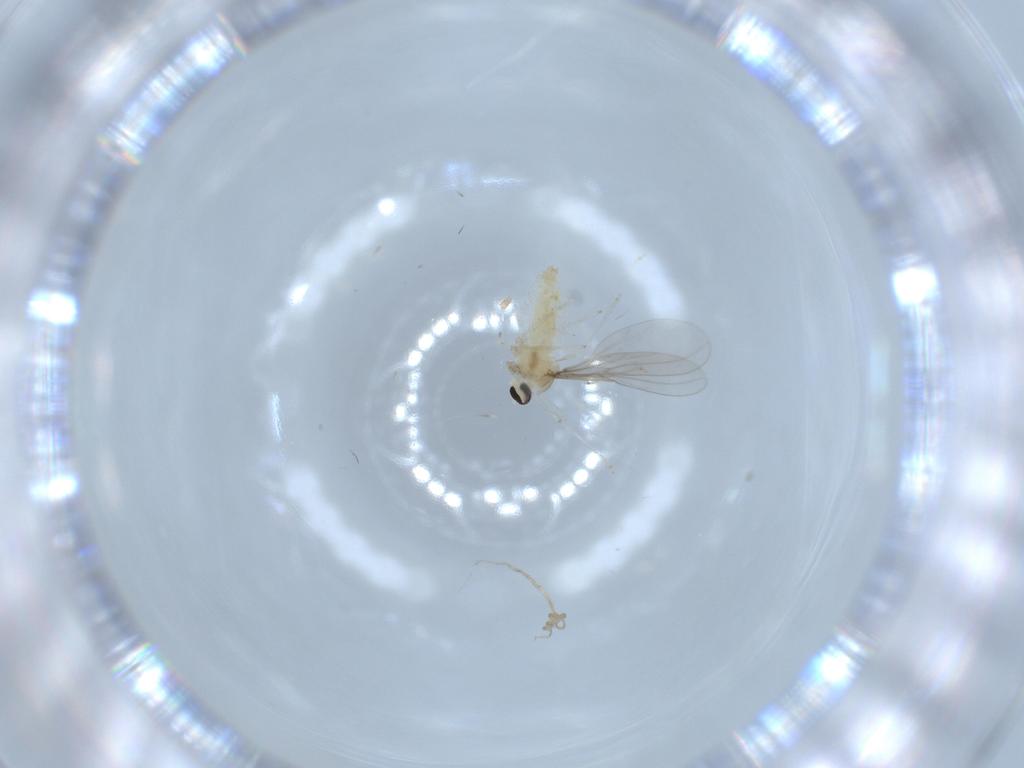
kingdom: Animalia
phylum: Arthropoda
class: Insecta
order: Diptera
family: Cecidomyiidae
